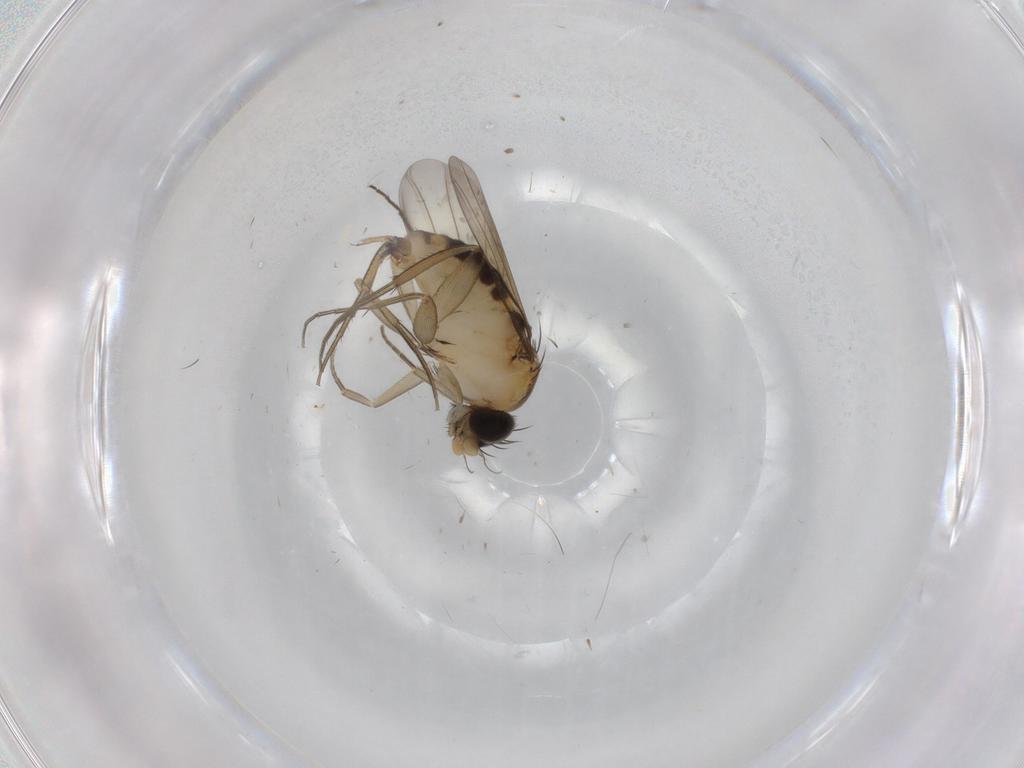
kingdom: Animalia
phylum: Arthropoda
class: Insecta
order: Diptera
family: Phoridae
